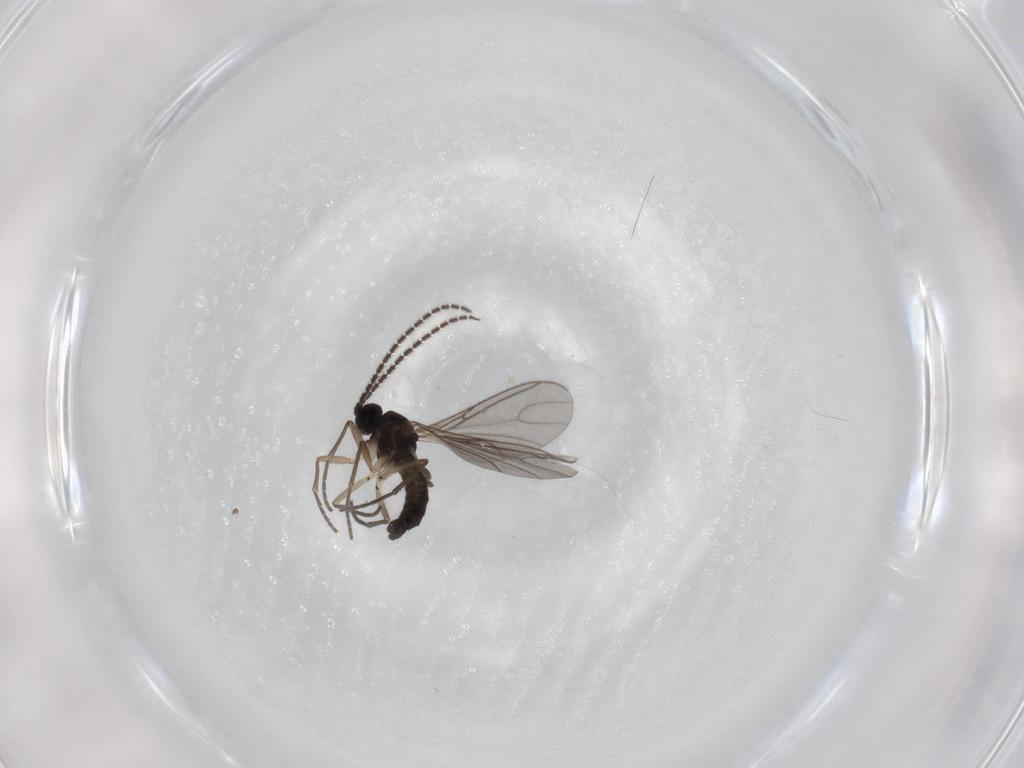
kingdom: Animalia
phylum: Arthropoda
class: Insecta
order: Diptera
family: Sciaridae
